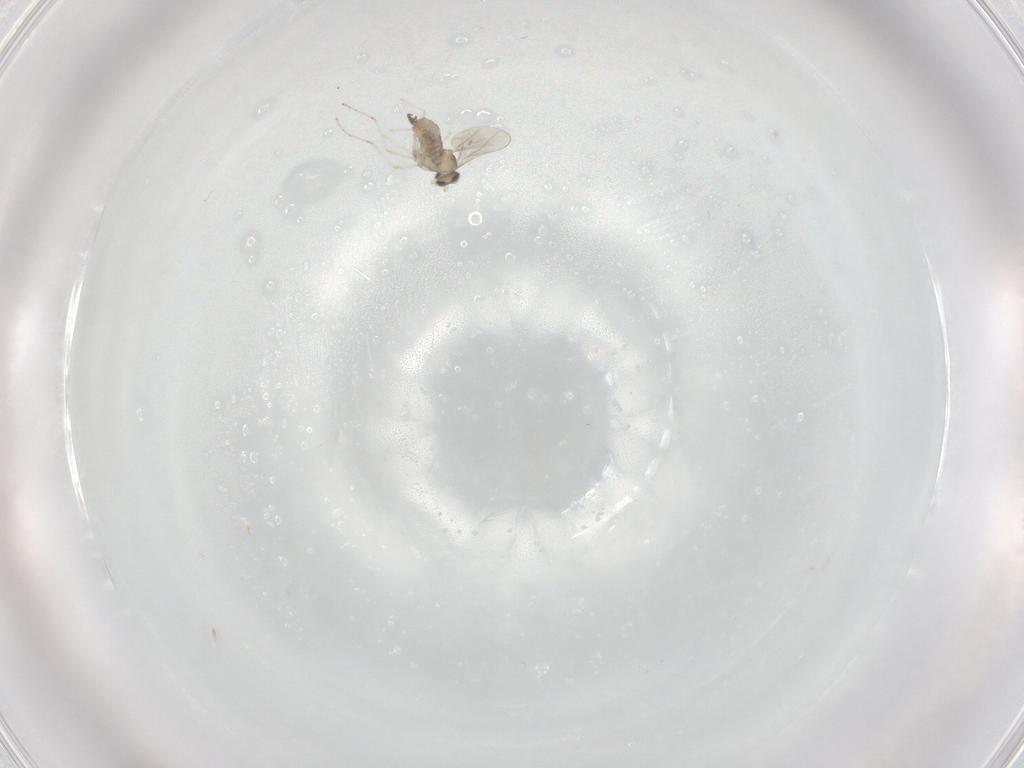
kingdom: Animalia
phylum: Arthropoda
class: Insecta
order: Diptera
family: Cecidomyiidae
